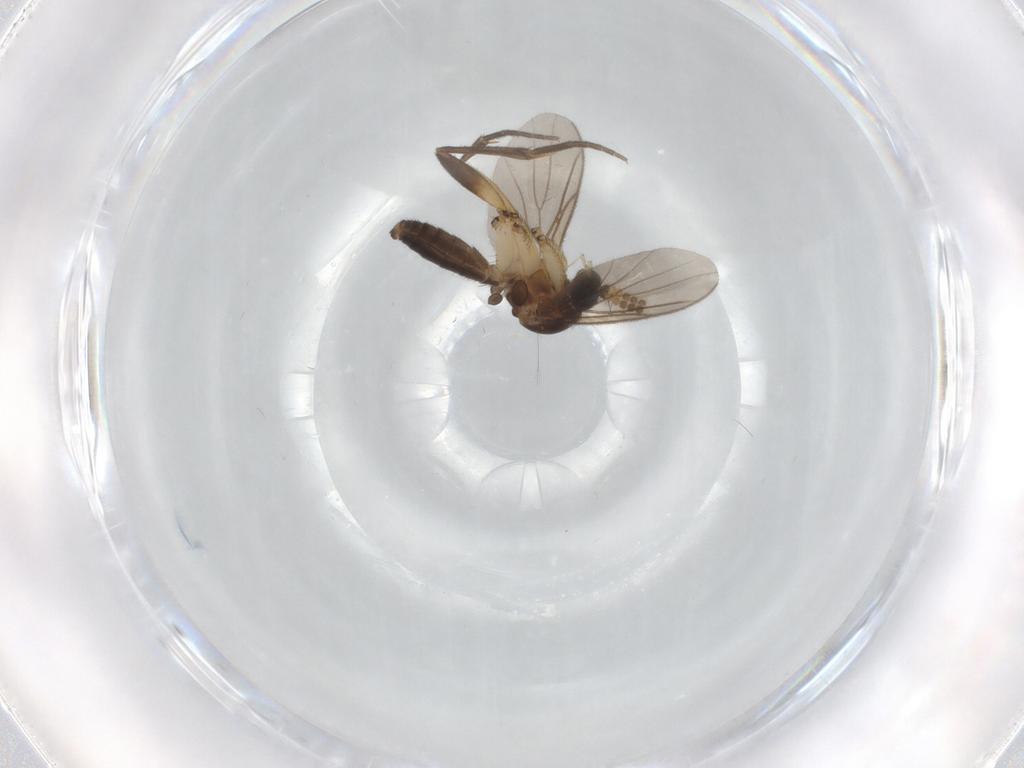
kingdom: Animalia
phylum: Arthropoda
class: Insecta
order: Diptera
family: Mycetophilidae
